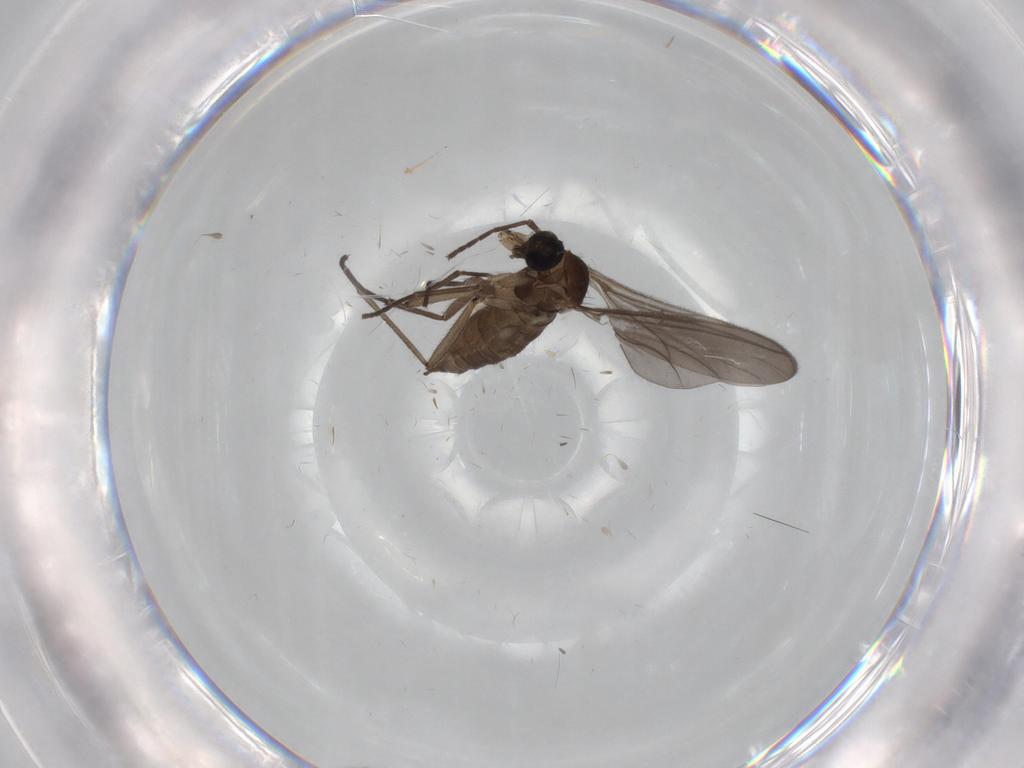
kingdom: Animalia
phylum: Arthropoda
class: Insecta
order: Diptera
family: Sciaridae
